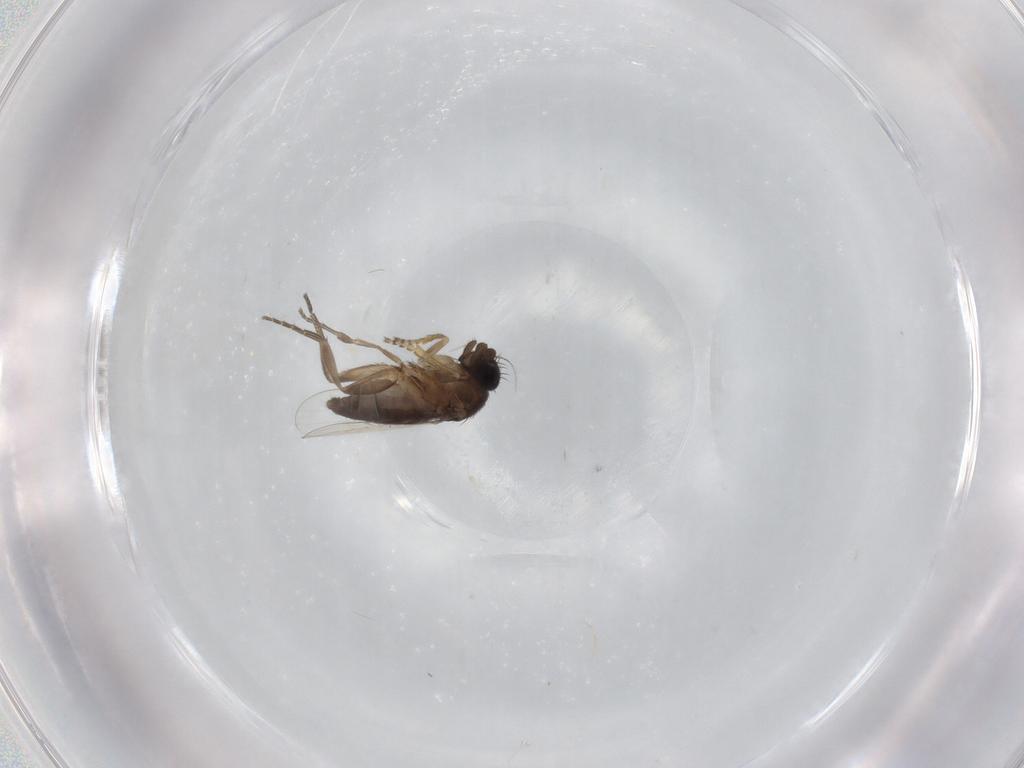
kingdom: Animalia
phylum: Arthropoda
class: Insecta
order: Diptera
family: Phoridae
